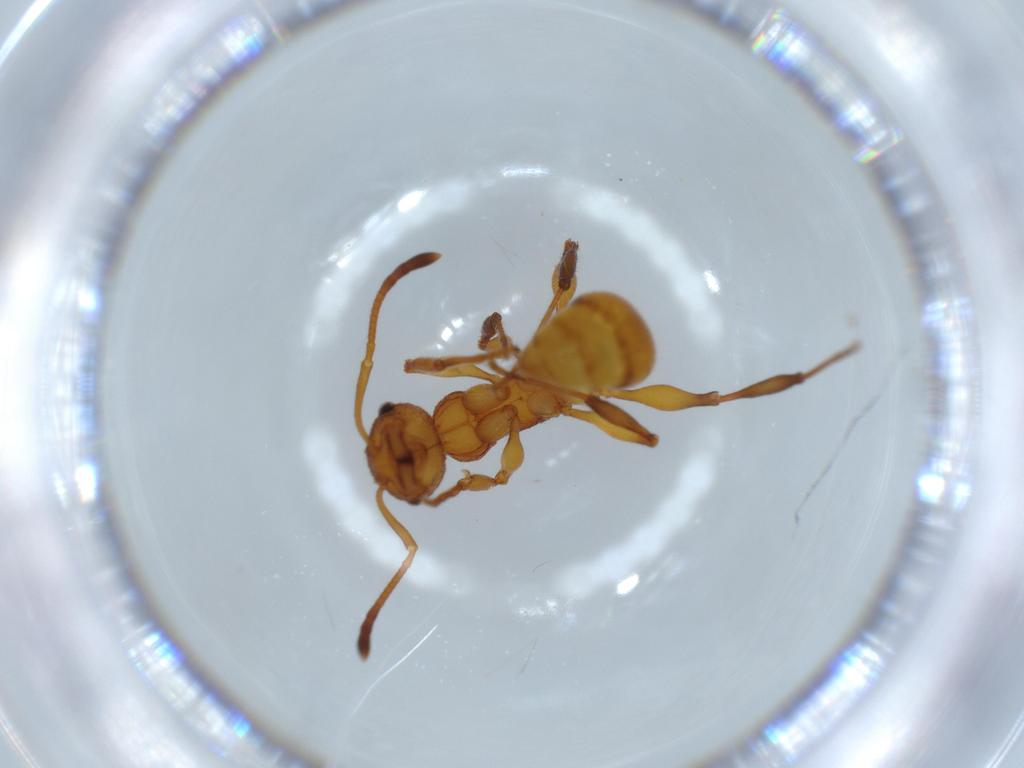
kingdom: Animalia
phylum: Arthropoda
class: Insecta
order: Hymenoptera
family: Formicidae
